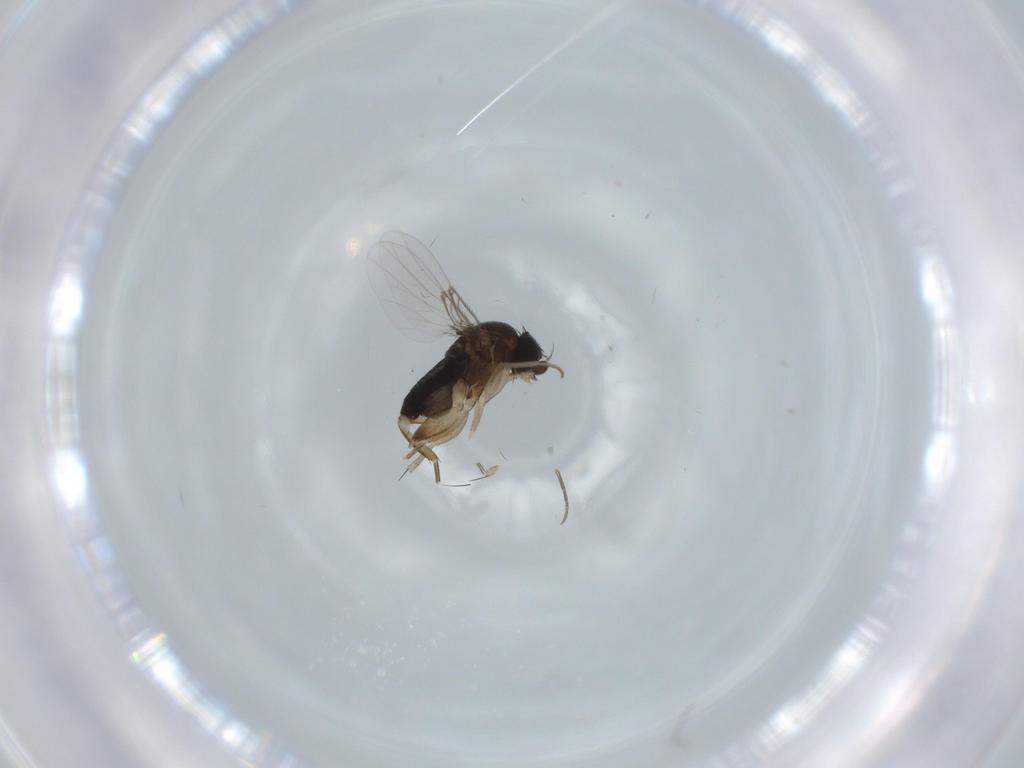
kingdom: Animalia
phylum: Arthropoda
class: Insecta
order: Diptera
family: Phoridae
